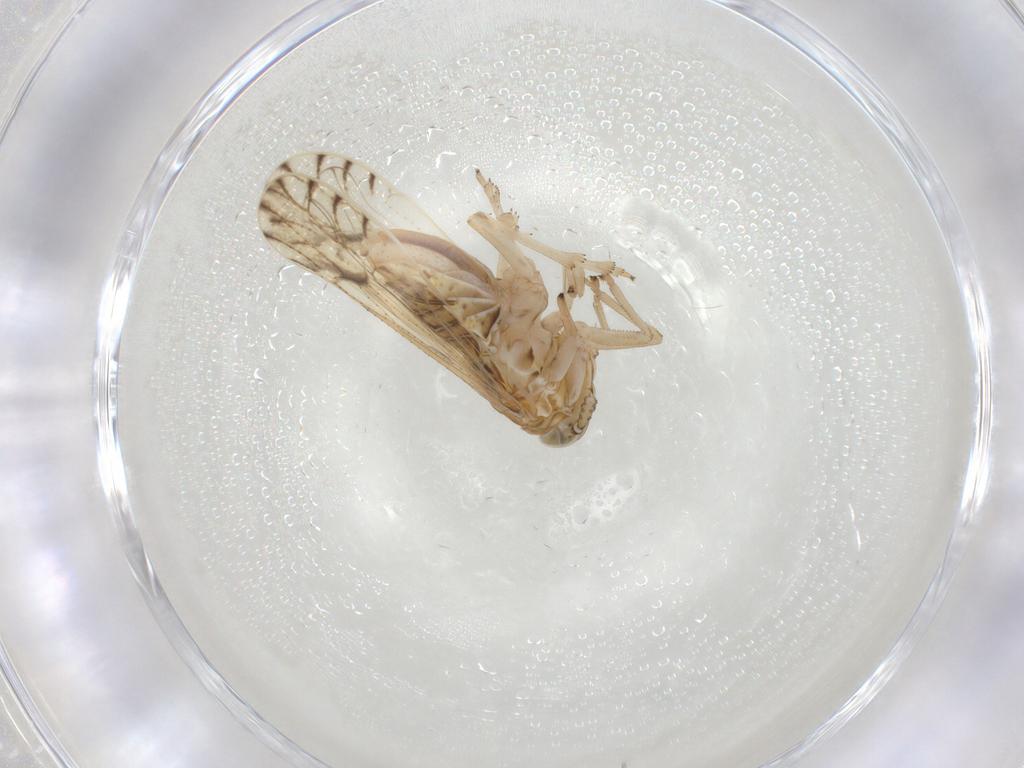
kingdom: Animalia
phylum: Arthropoda
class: Insecta
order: Hemiptera
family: Delphacidae
